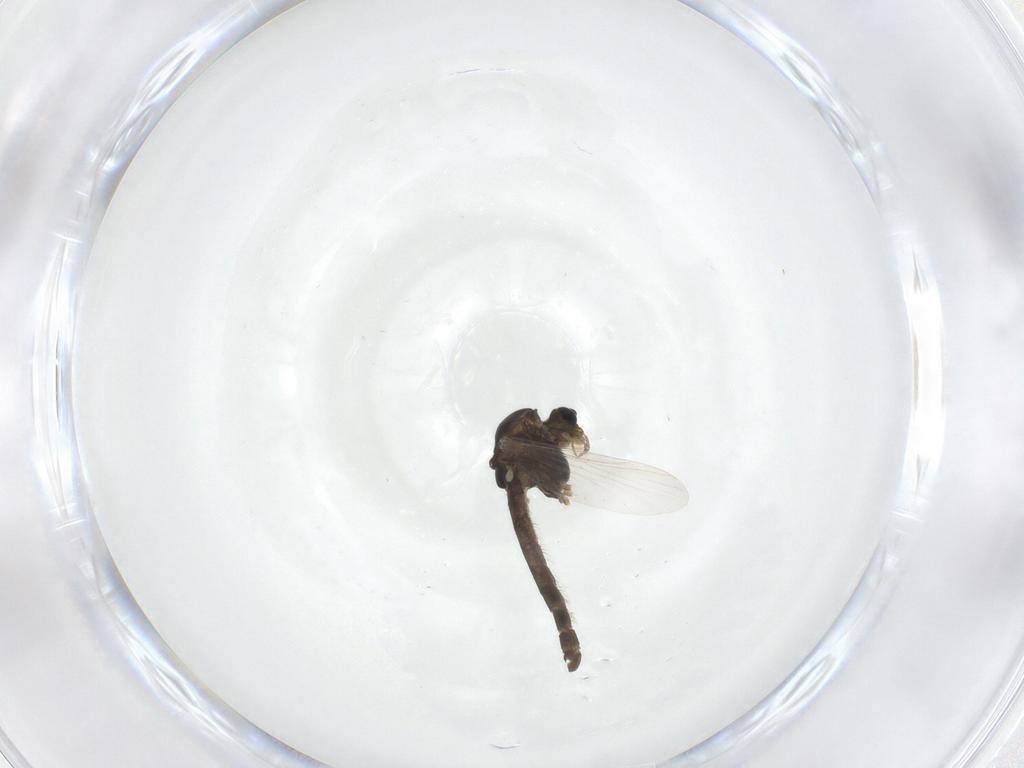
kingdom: Animalia
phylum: Arthropoda
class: Insecta
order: Diptera
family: Chironomidae
